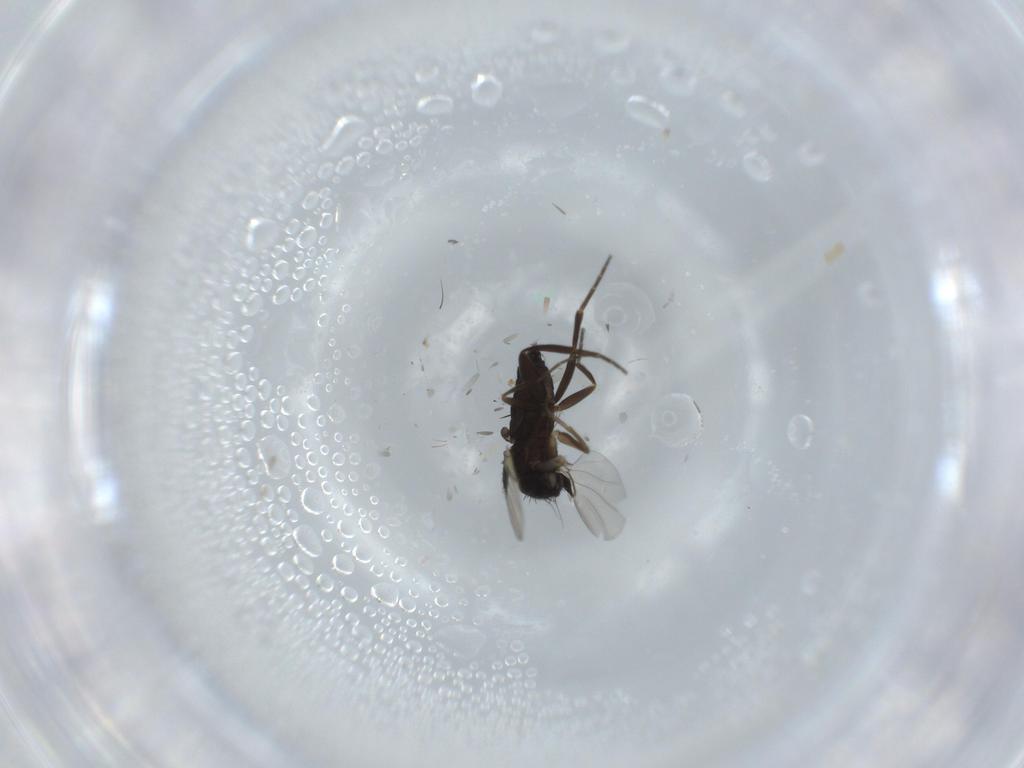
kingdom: Animalia
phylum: Arthropoda
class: Insecta
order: Diptera
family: Phoridae
